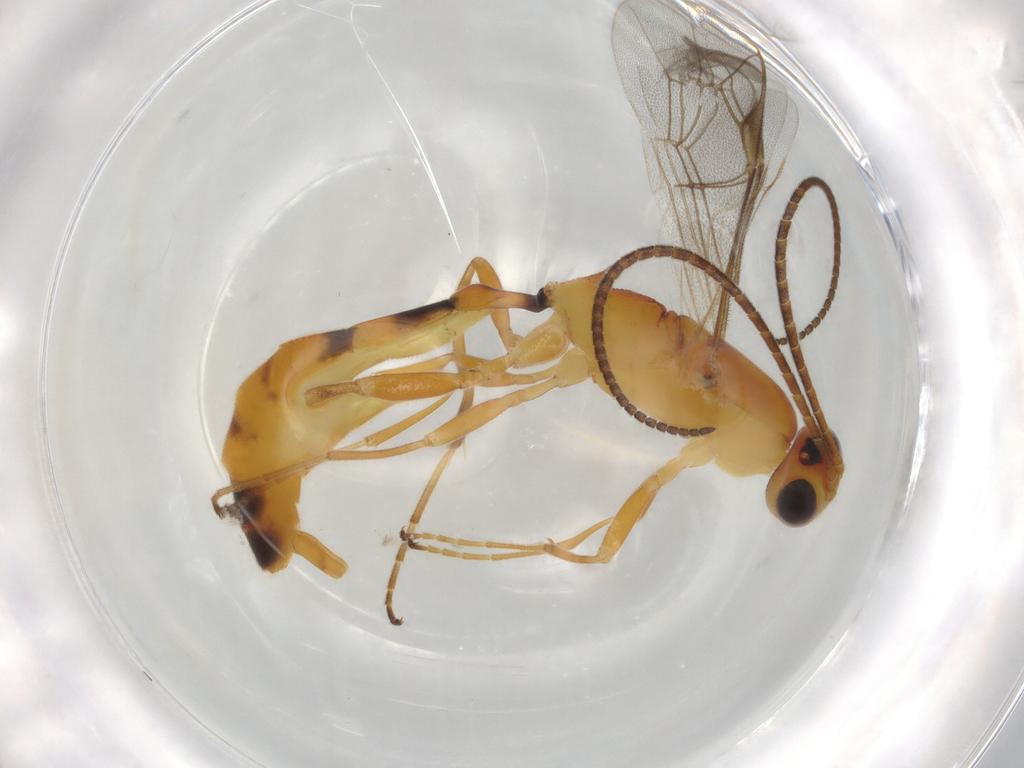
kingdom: Animalia
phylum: Arthropoda
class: Insecta
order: Hymenoptera
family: Ichneumonidae
